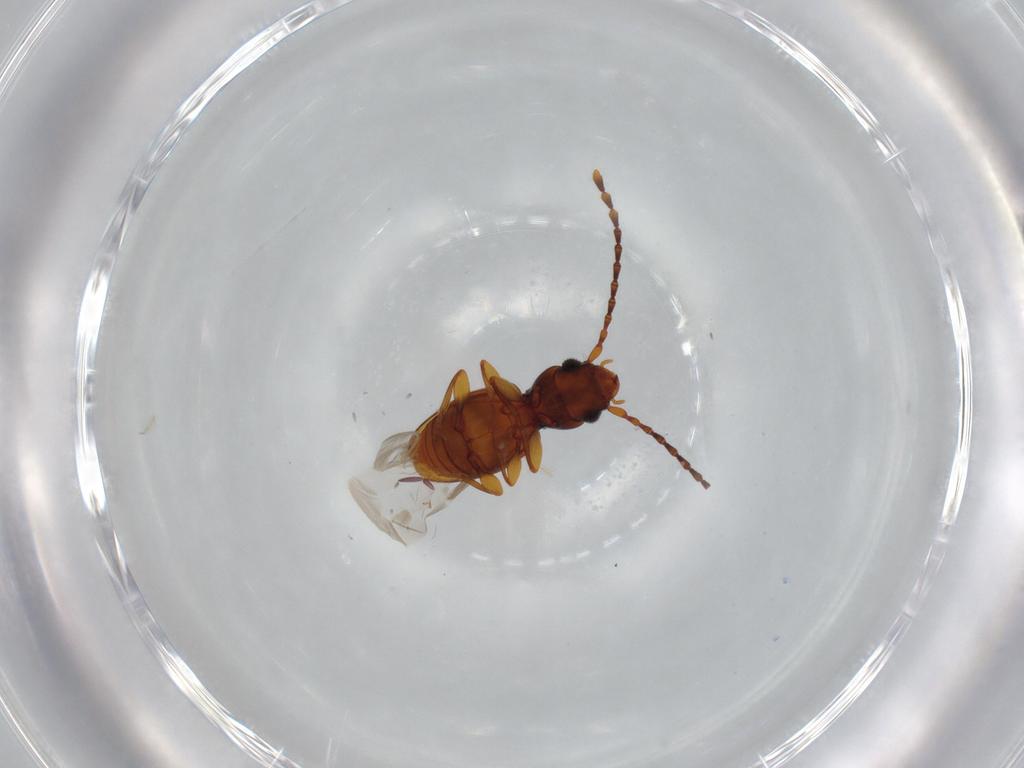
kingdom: Animalia
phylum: Arthropoda
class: Insecta
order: Coleoptera
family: Laemophloeidae
